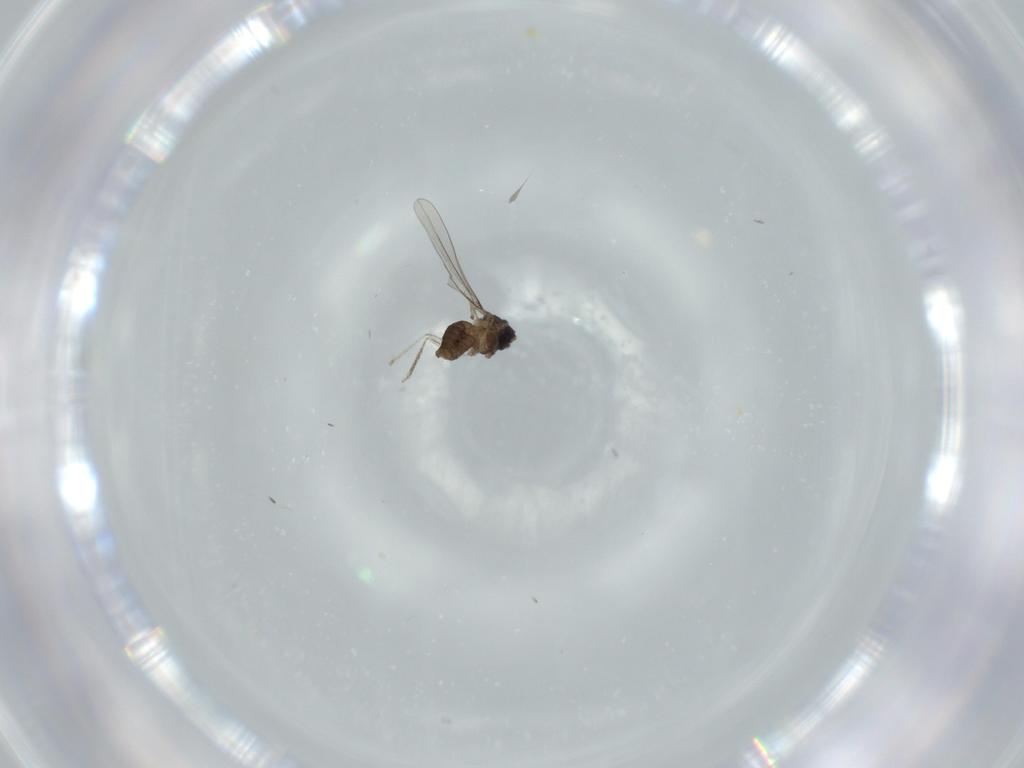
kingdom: Animalia
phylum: Arthropoda
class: Insecta
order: Diptera
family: Cecidomyiidae
